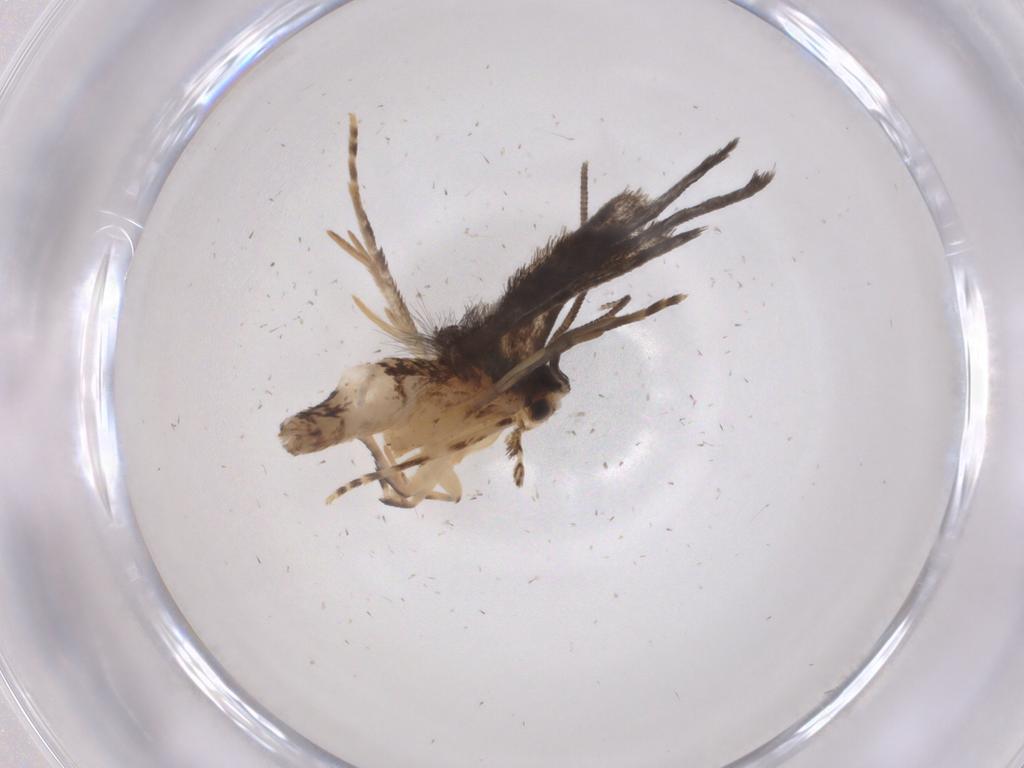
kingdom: Animalia
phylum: Arthropoda
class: Insecta
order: Lepidoptera
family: Dryadaulidae
